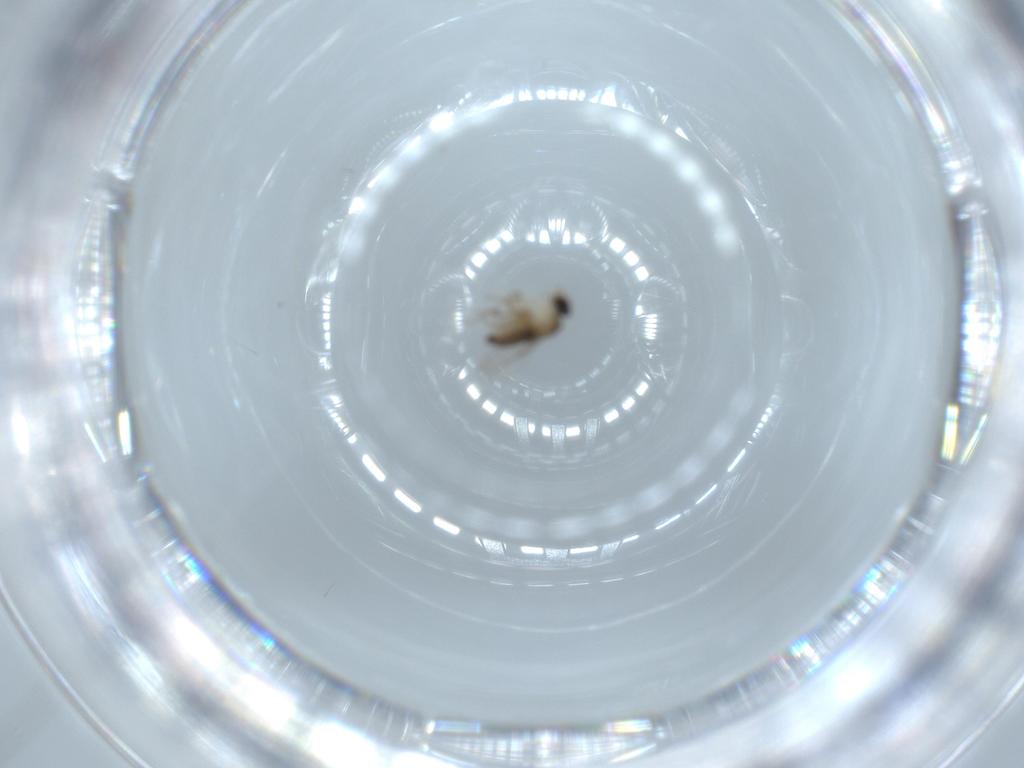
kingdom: Animalia
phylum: Arthropoda
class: Insecta
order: Diptera
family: Phoridae
